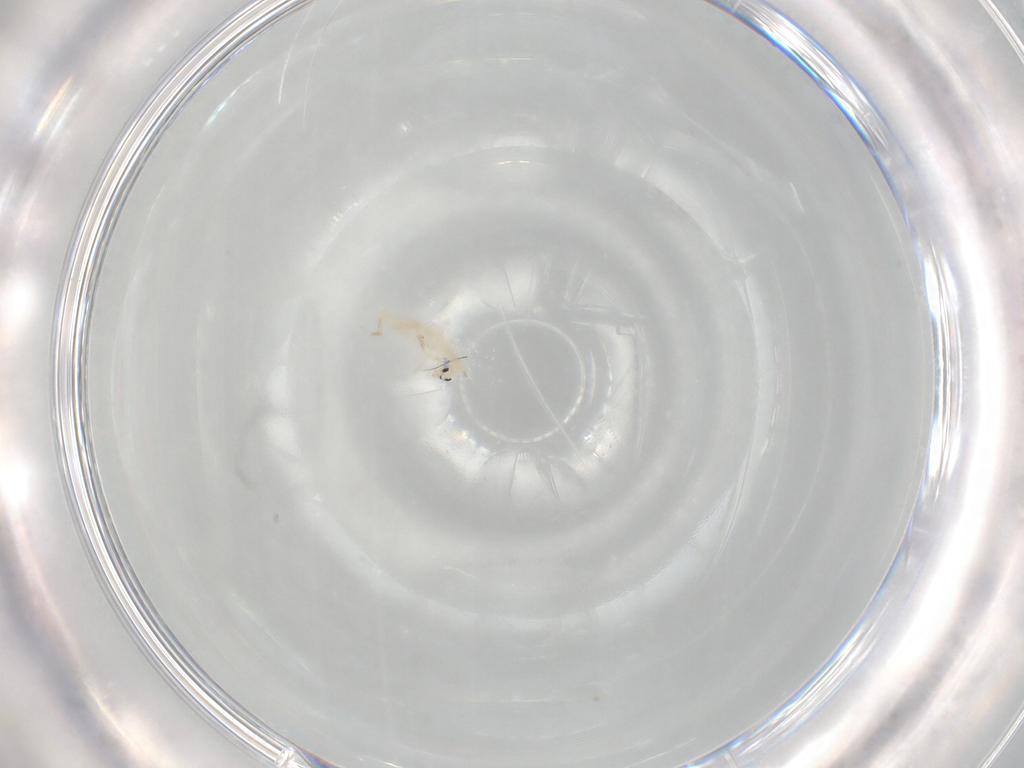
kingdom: Animalia
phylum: Arthropoda
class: Collembola
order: Entomobryomorpha
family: Entomobryidae
